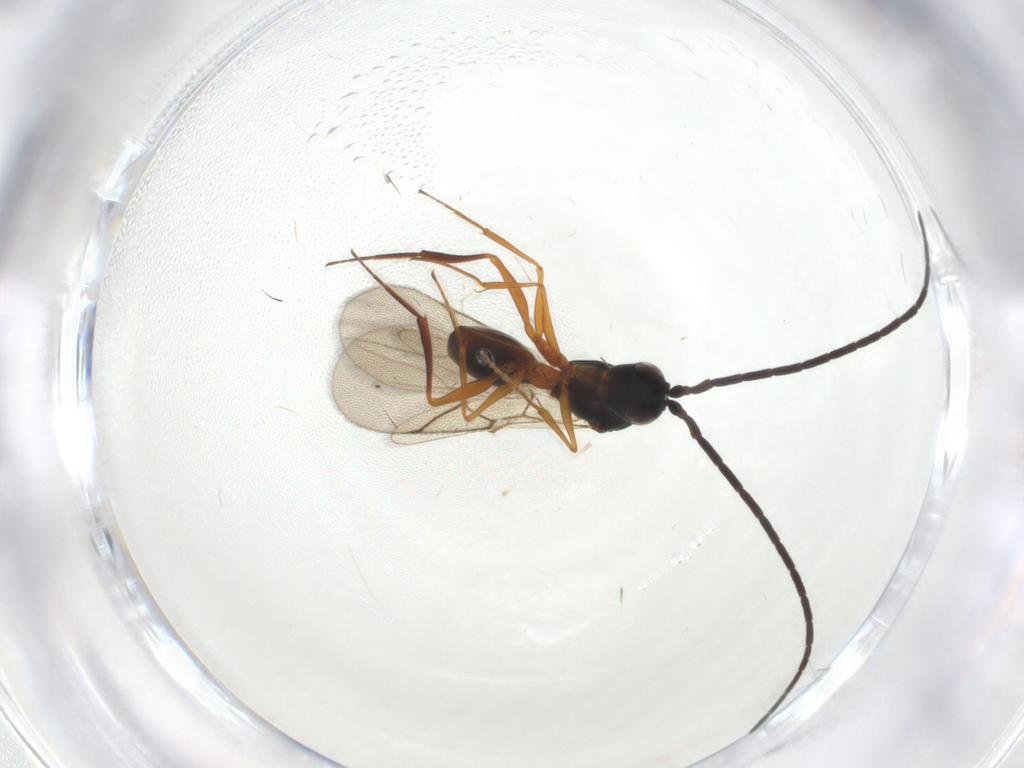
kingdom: Animalia
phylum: Arthropoda
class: Insecta
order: Hymenoptera
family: Figitidae
